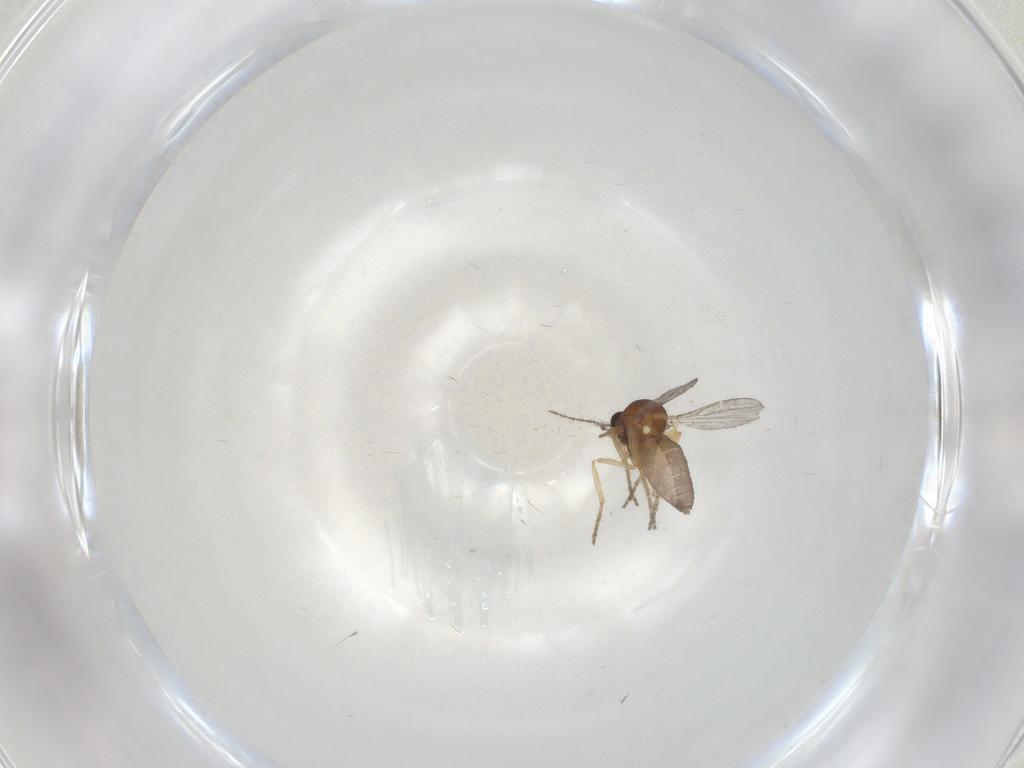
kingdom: Animalia
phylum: Arthropoda
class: Insecta
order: Diptera
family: Ceratopogonidae
